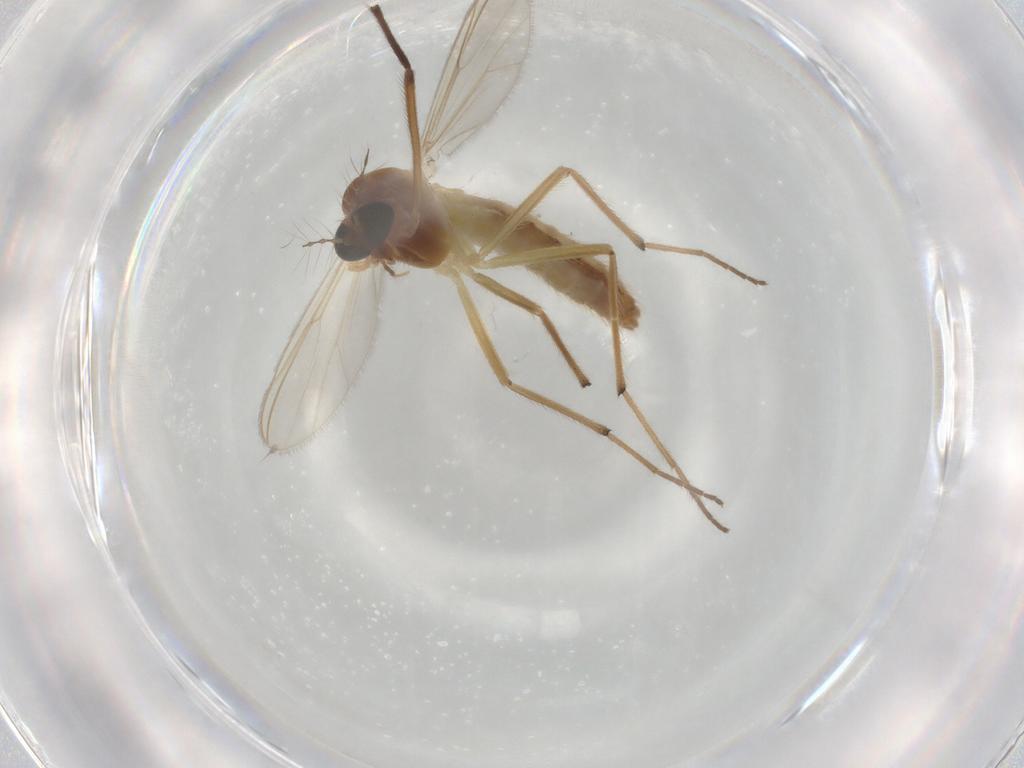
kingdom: Animalia
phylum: Arthropoda
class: Insecta
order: Diptera
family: Chironomidae
